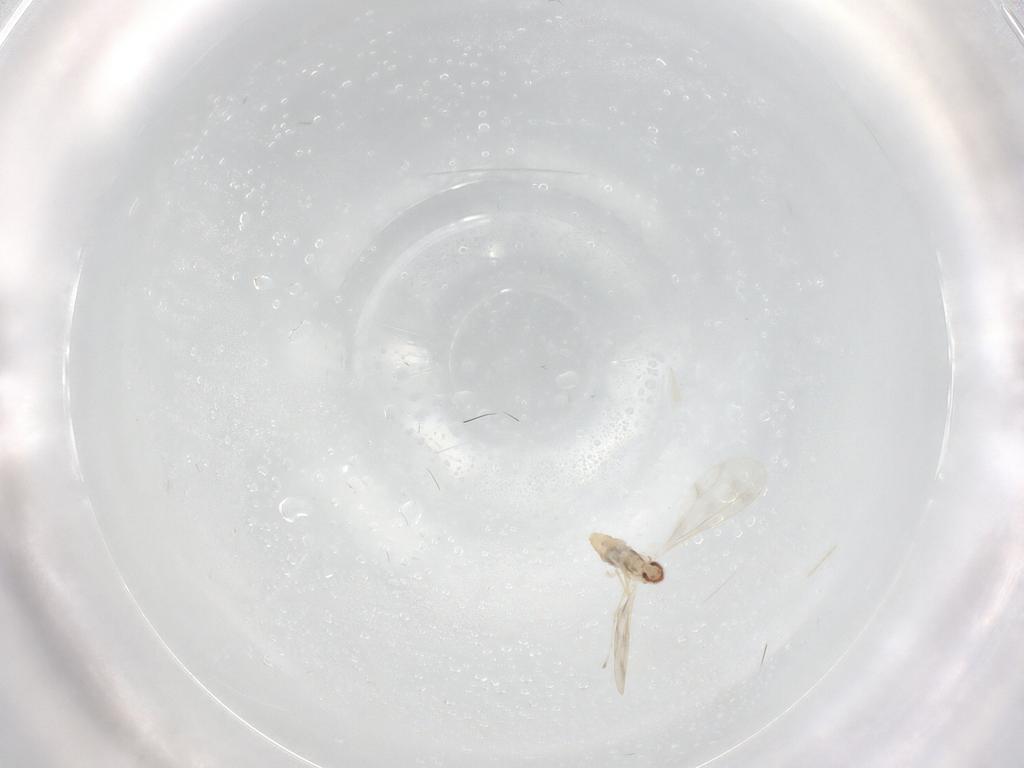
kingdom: Animalia
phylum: Arthropoda
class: Insecta
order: Diptera
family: Cecidomyiidae
